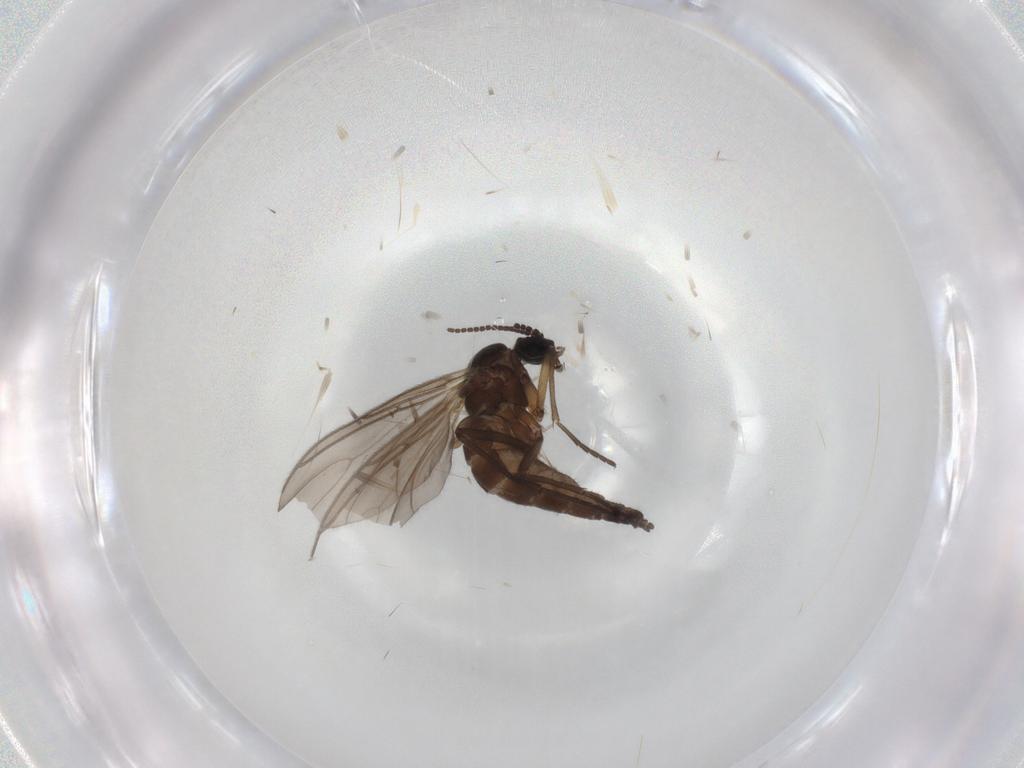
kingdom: Animalia
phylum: Arthropoda
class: Insecta
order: Diptera
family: Sciaridae
